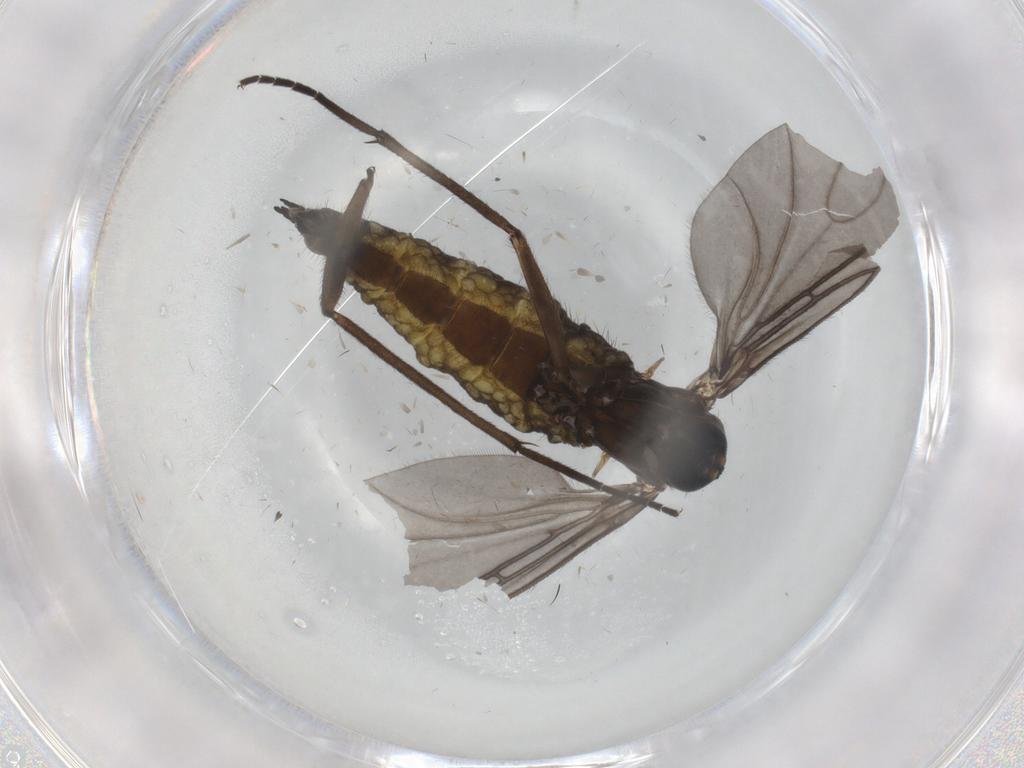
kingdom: Animalia
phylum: Arthropoda
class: Insecta
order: Diptera
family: Sciaridae
